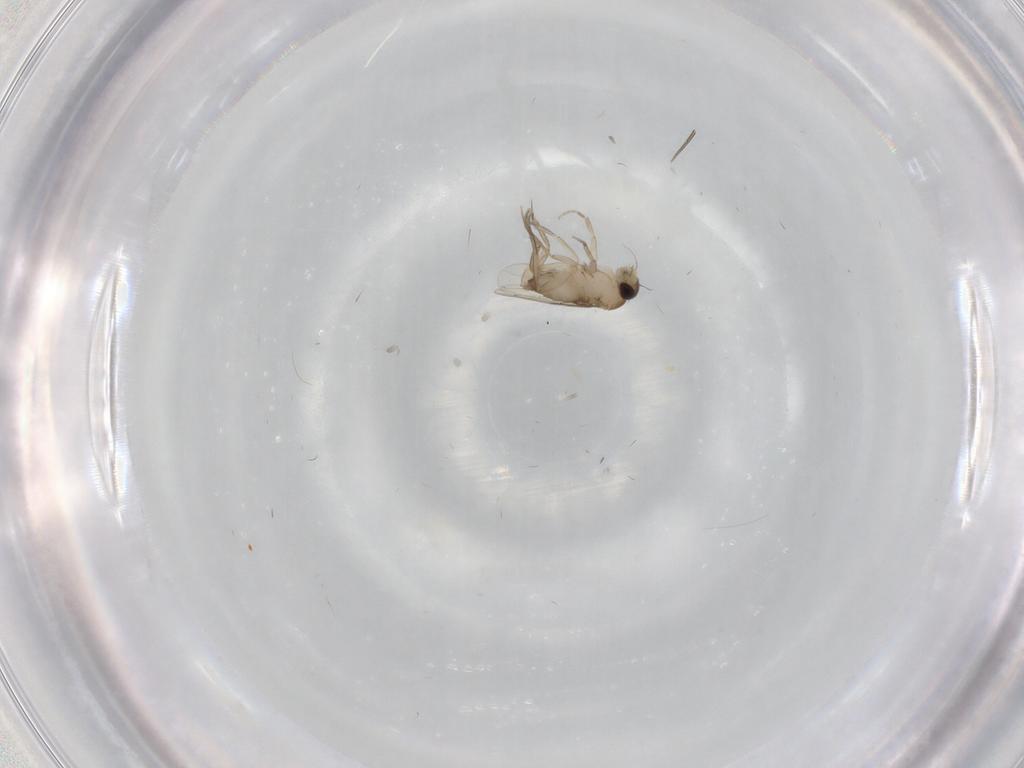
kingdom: Animalia
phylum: Arthropoda
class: Insecta
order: Diptera
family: Phoridae
